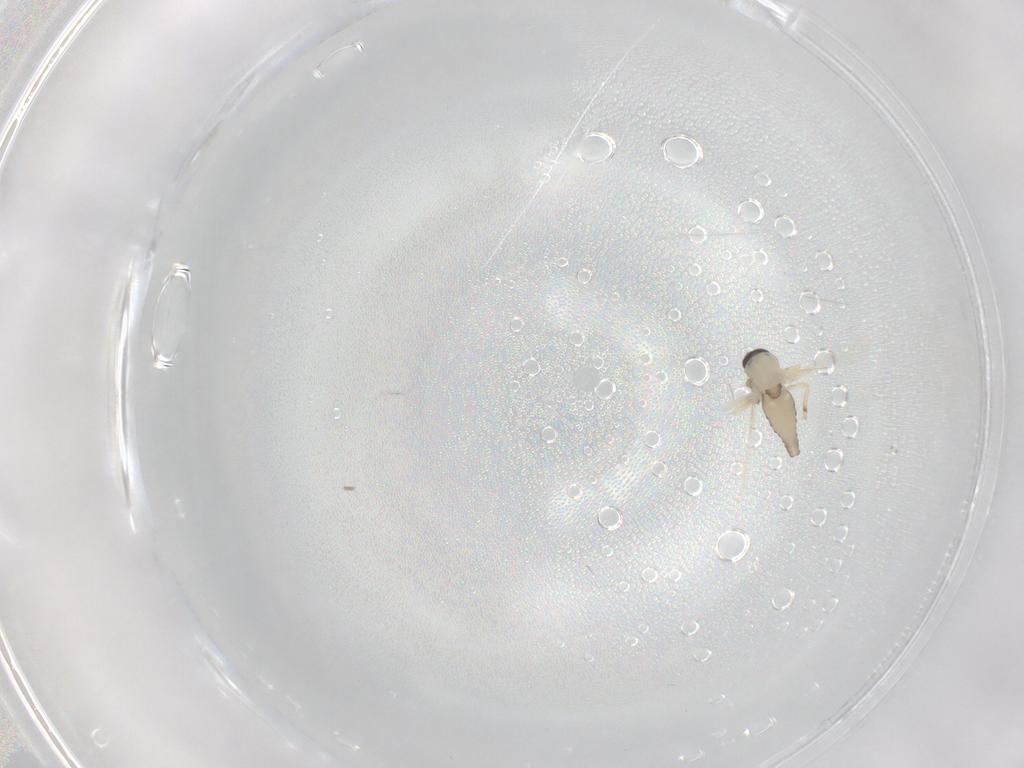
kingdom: Animalia
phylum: Arthropoda
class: Insecta
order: Diptera
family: Ceratopogonidae
